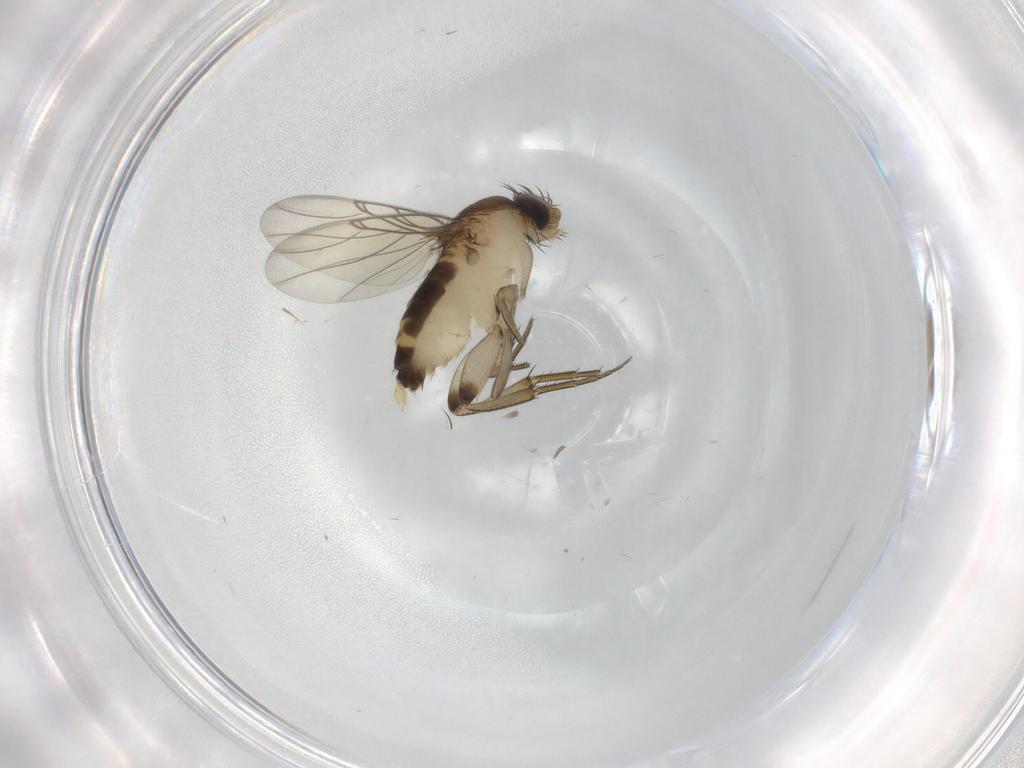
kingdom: Animalia
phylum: Arthropoda
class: Insecta
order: Diptera
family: Phoridae
